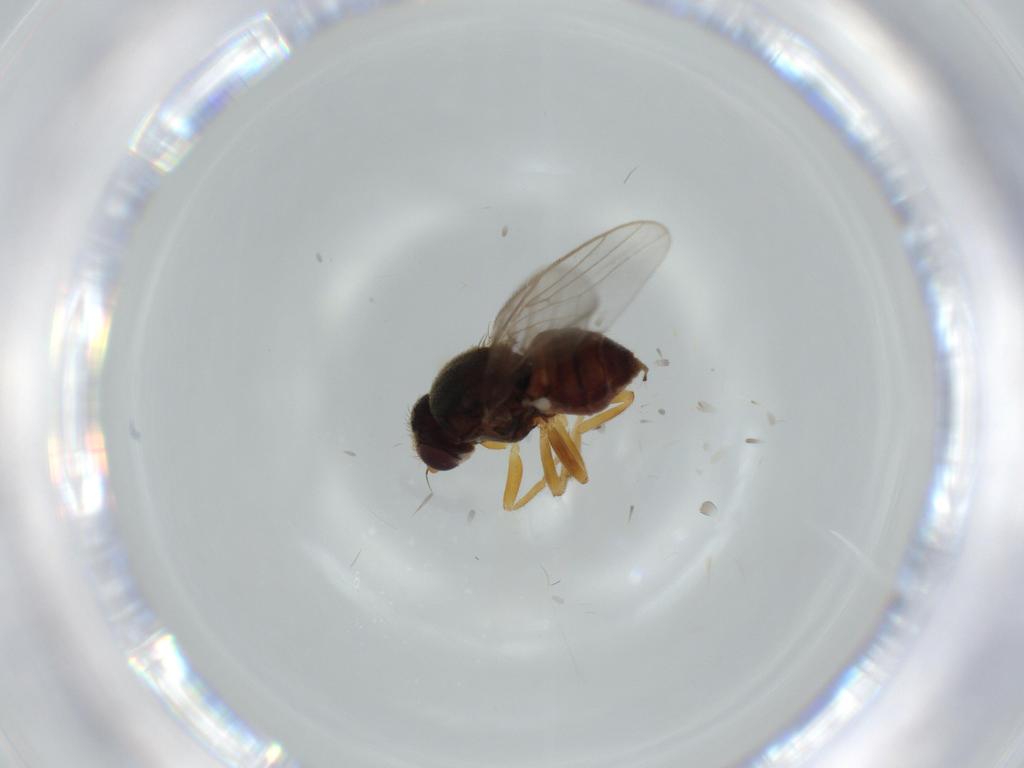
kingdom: Animalia
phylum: Arthropoda
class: Insecta
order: Diptera
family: Chloropidae
